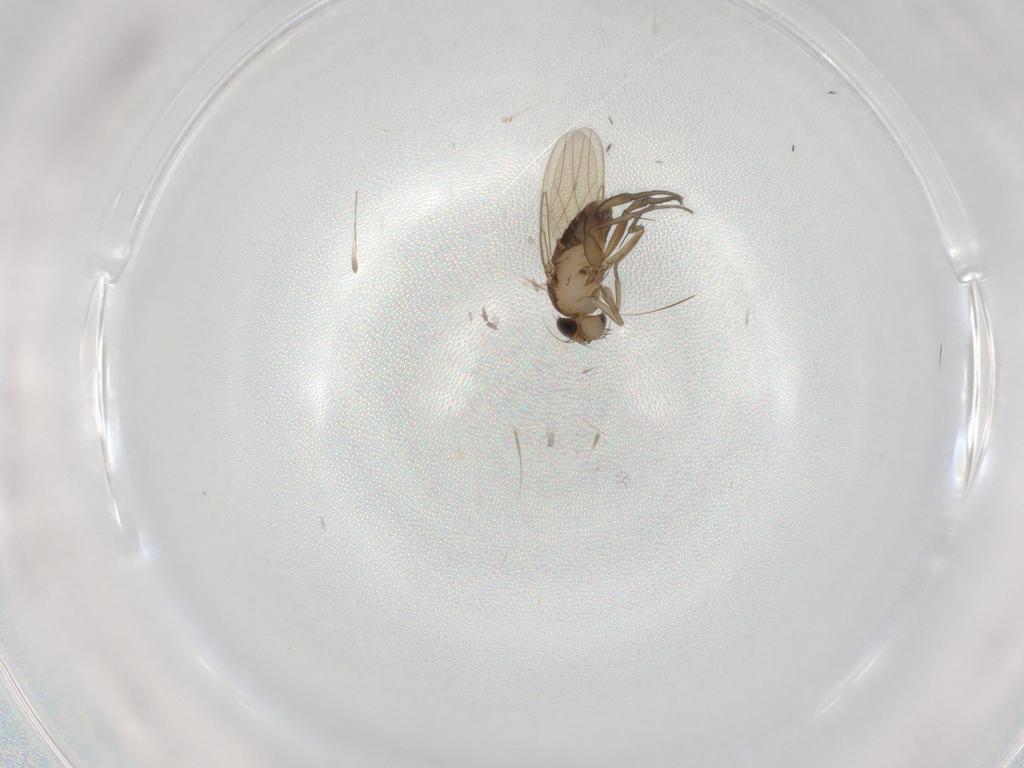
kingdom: Animalia
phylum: Arthropoda
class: Insecta
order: Diptera
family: Phoridae
